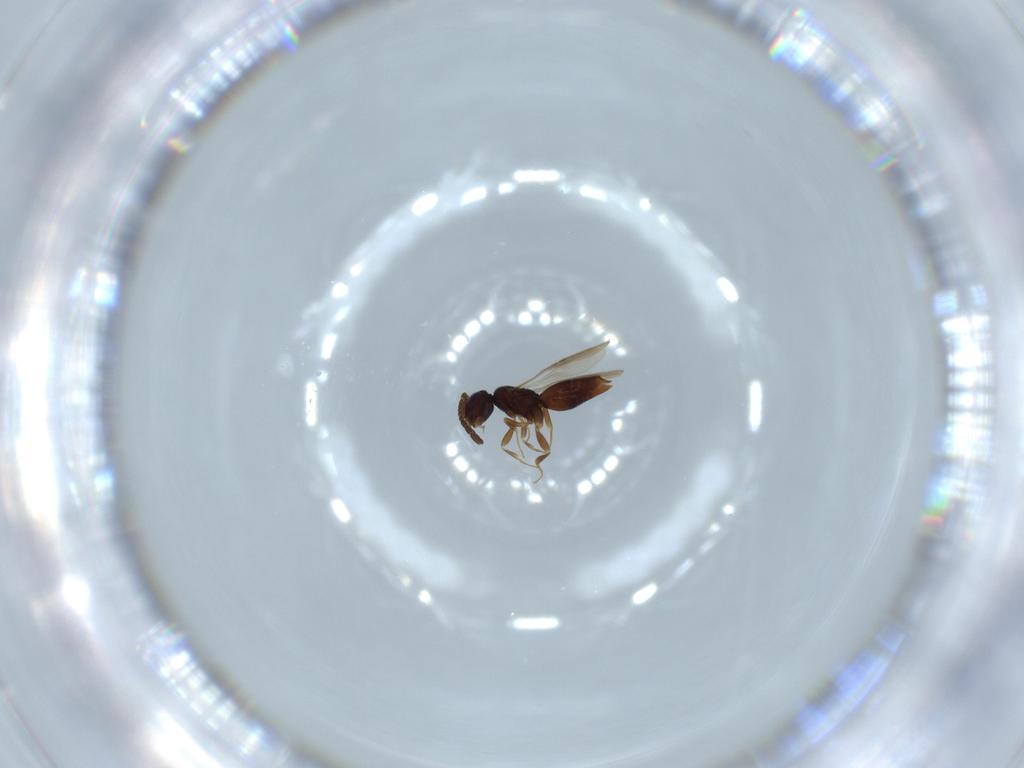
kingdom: Animalia
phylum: Arthropoda
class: Insecta
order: Hymenoptera
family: Ceraphronidae
